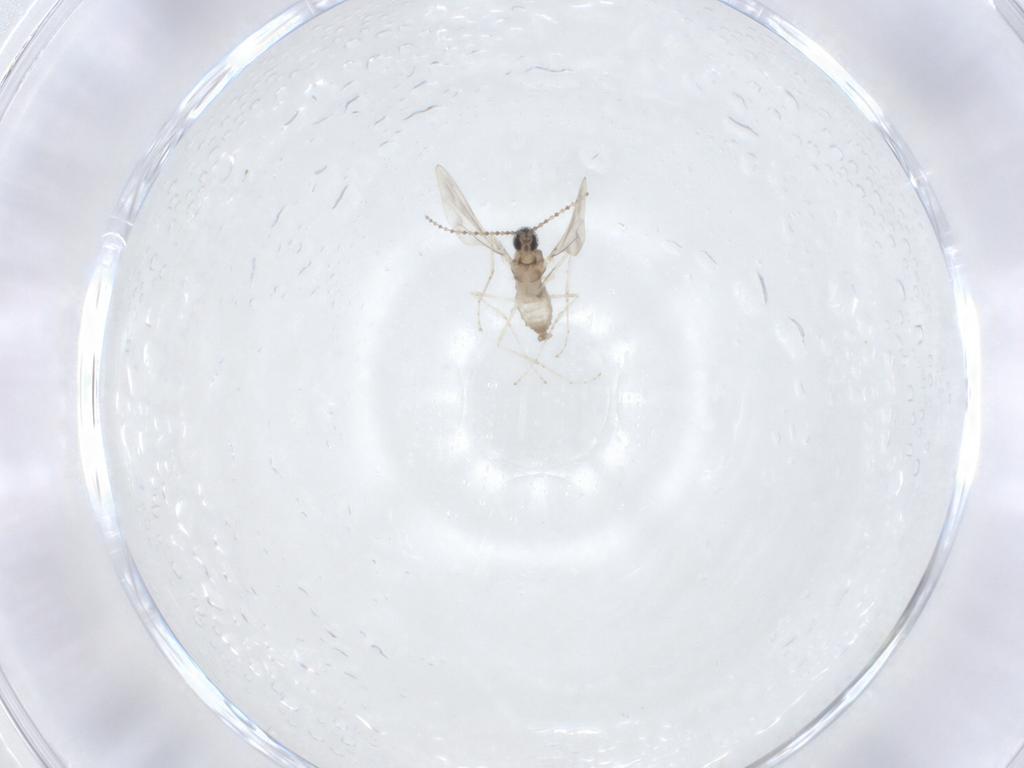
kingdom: Animalia
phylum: Arthropoda
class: Insecta
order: Diptera
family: Cecidomyiidae
